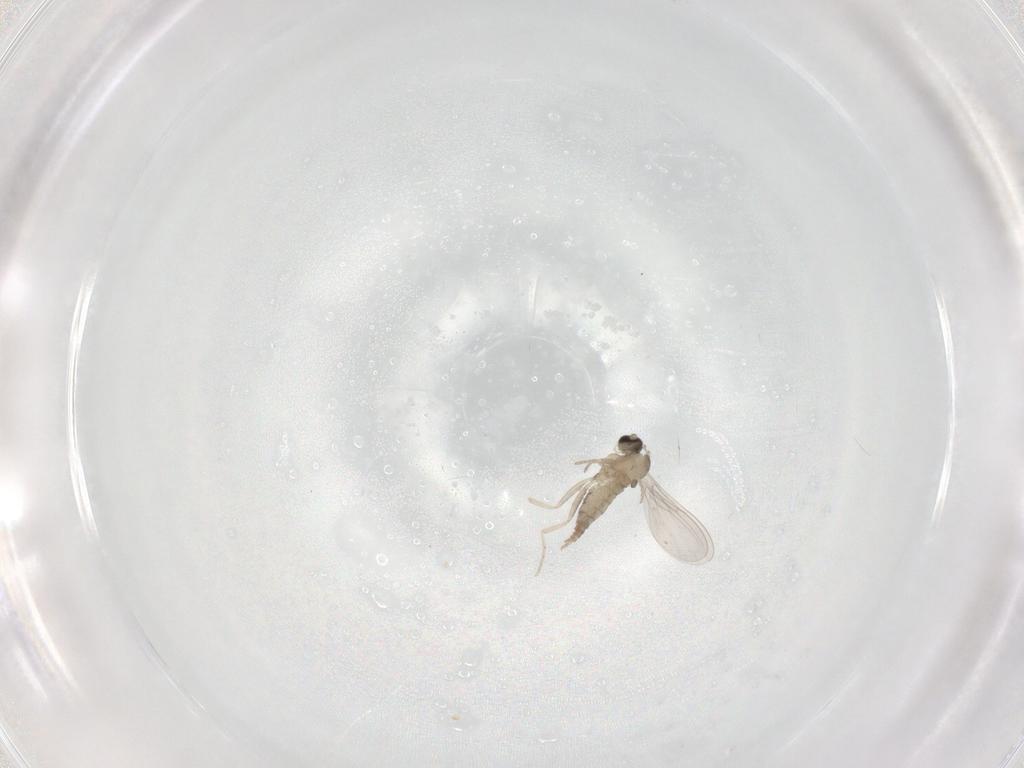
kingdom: Animalia
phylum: Arthropoda
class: Insecta
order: Diptera
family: Cecidomyiidae
